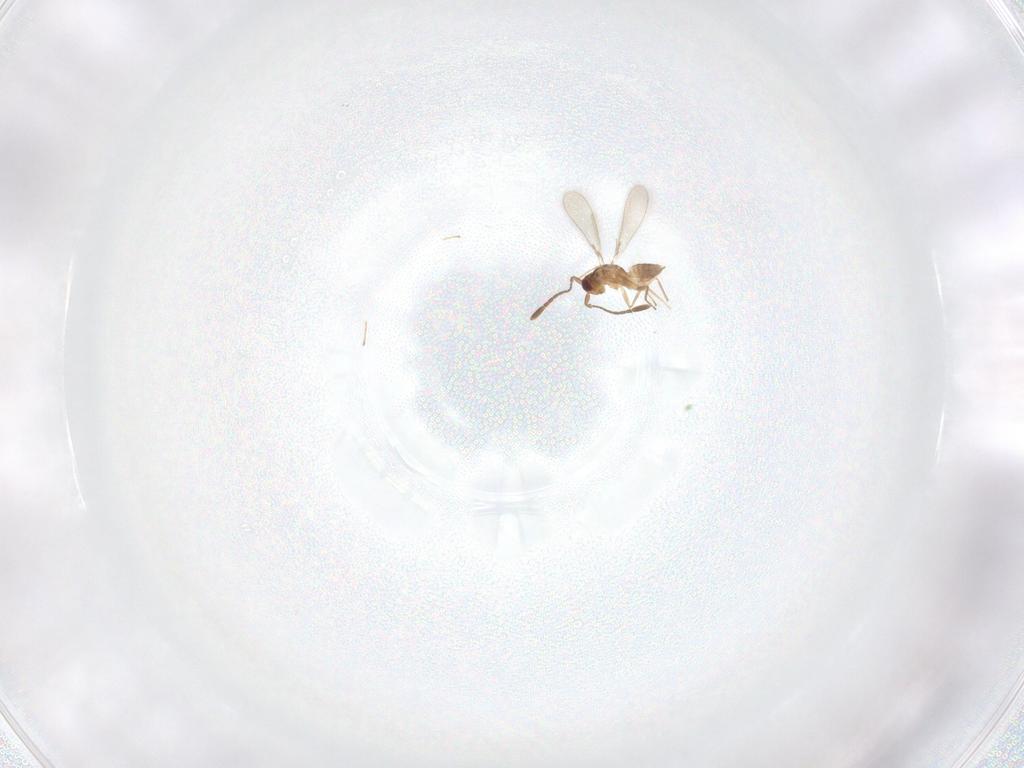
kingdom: Animalia
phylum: Arthropoda
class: Insecta
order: Hymenoptera
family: Mymaridae
